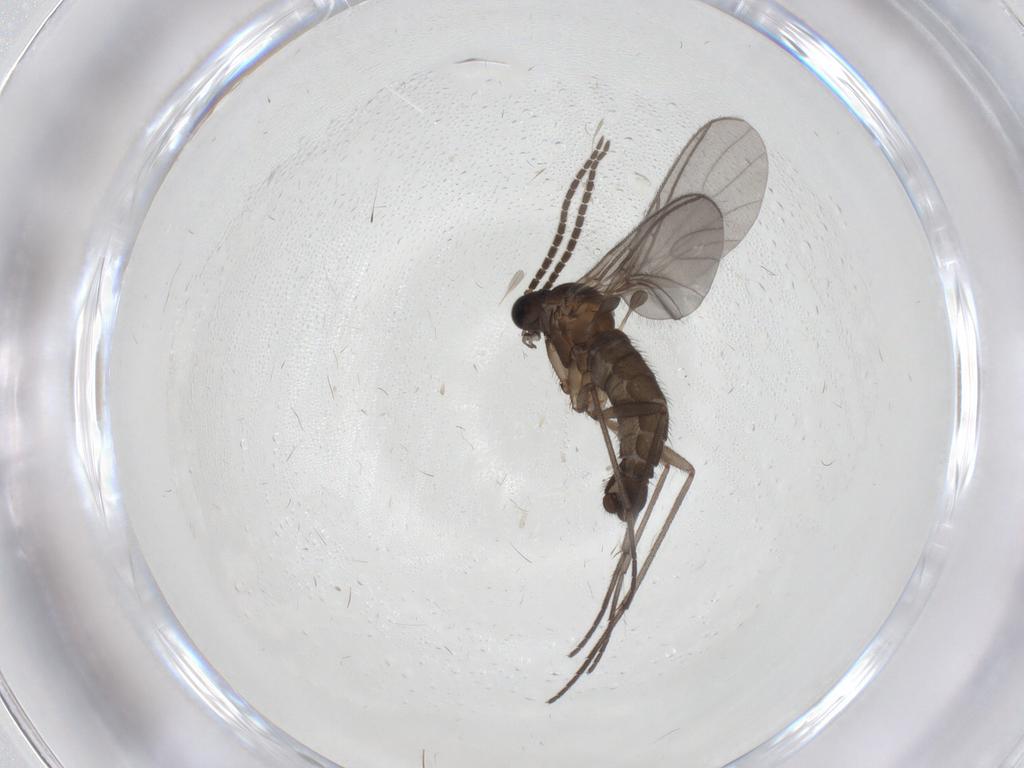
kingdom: Animalia
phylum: Arthropoda
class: Insecta
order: Diptera
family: Sciaridae
